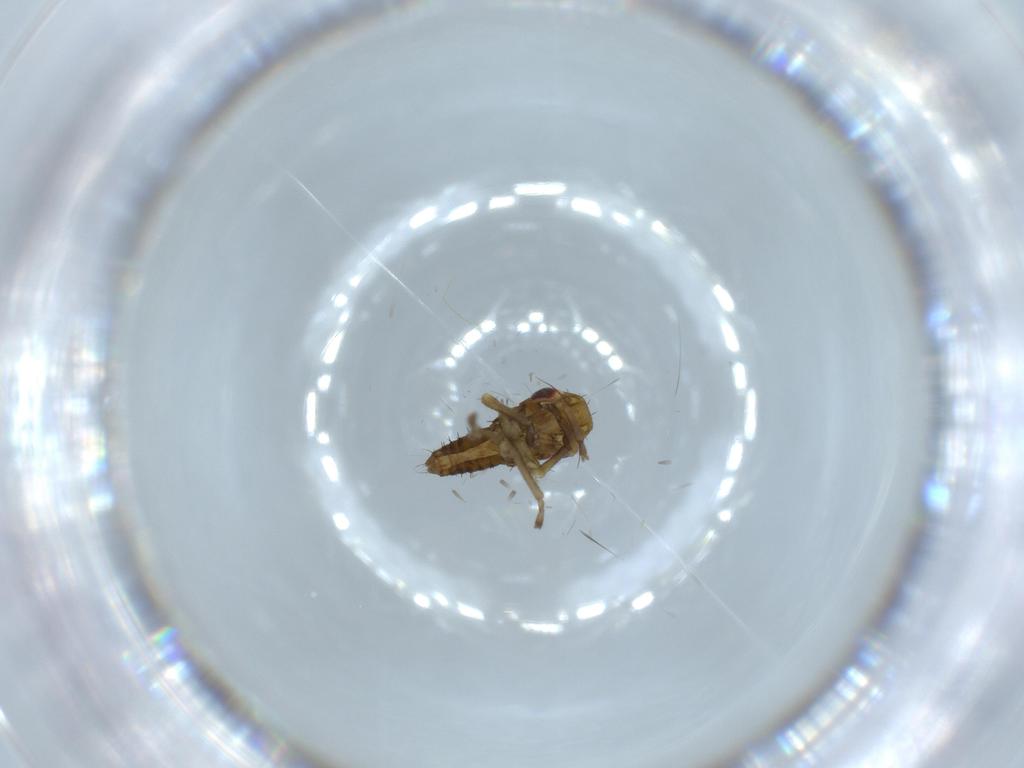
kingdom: Animalia
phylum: Arthropoda
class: Insecta
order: Hemiptera
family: Cicadellidae
